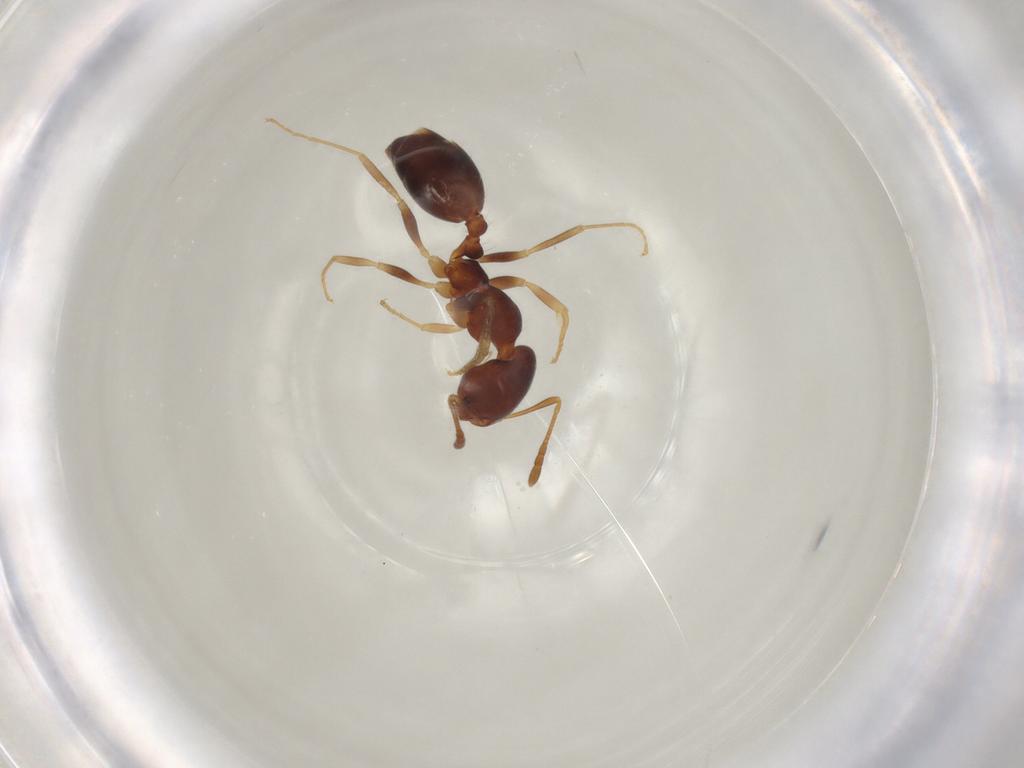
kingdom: Animalia
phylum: Arthropoda
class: Insecta
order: Hymenoptera
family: Formicidae
